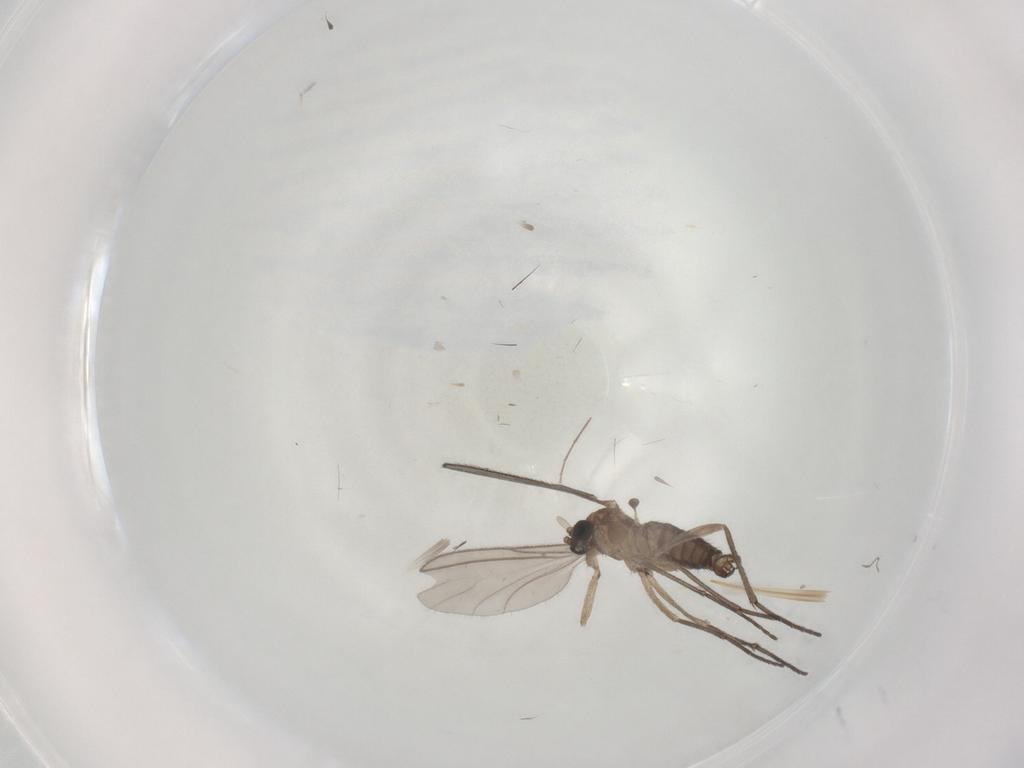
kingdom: Animalia
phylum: Arthropoda
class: Insecta
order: Diptera
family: Sciaridae
